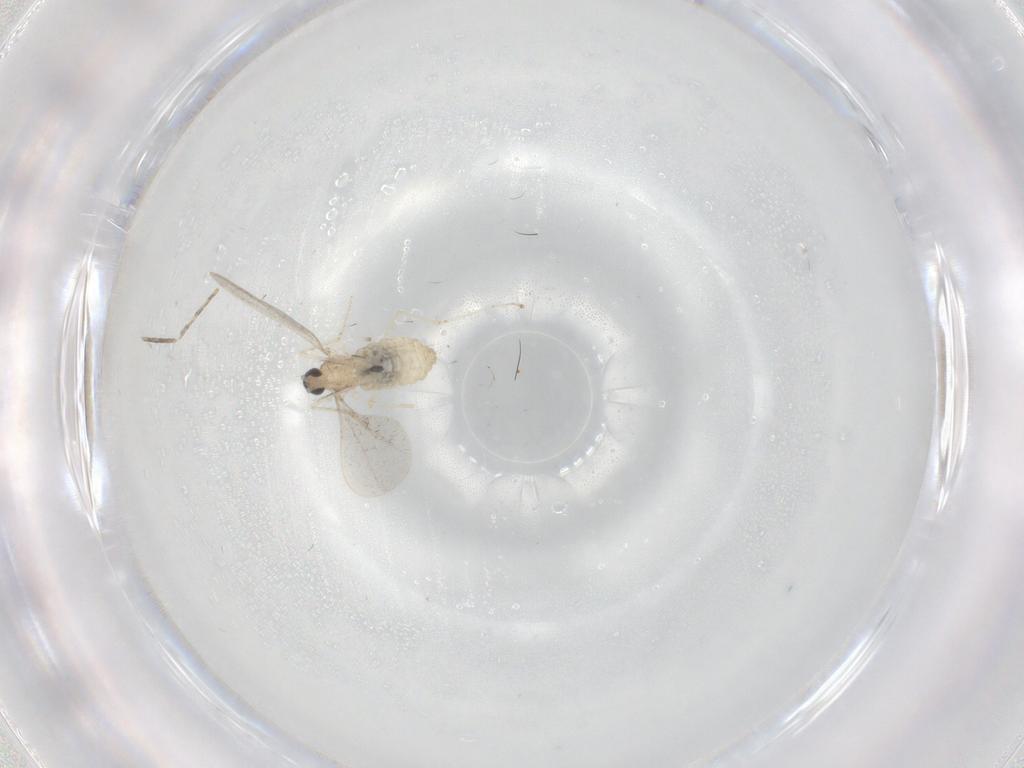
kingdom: Animalia
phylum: Arthropoda
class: Insecta
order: Diptera
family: Cecidomyiidae
